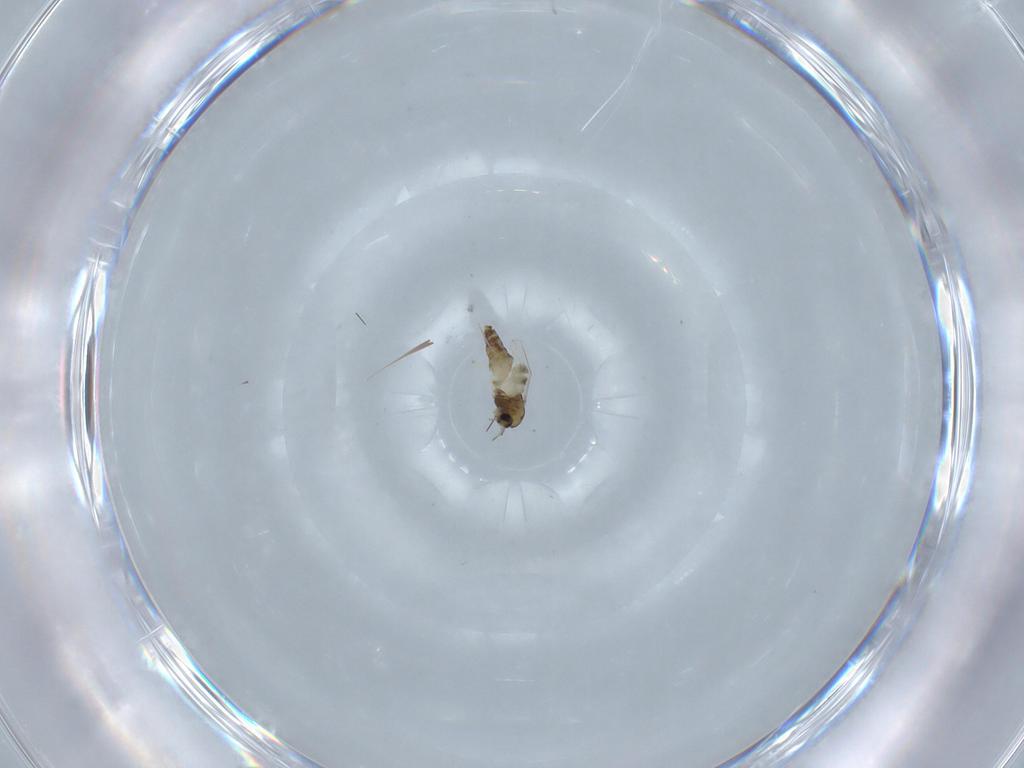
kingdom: Animalia
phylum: Arthropoda
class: Insecta
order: Diptera
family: Chironomidae
